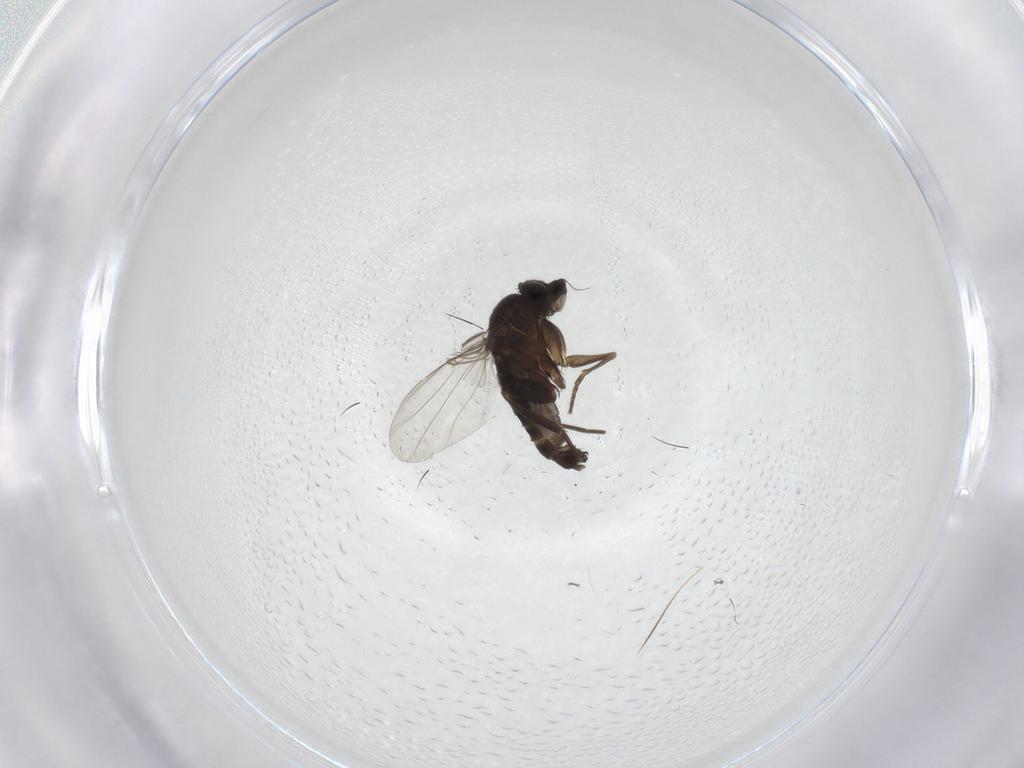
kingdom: Animalia
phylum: Arthropoda
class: Insecta
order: Diptera
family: Cecidomyiidae
